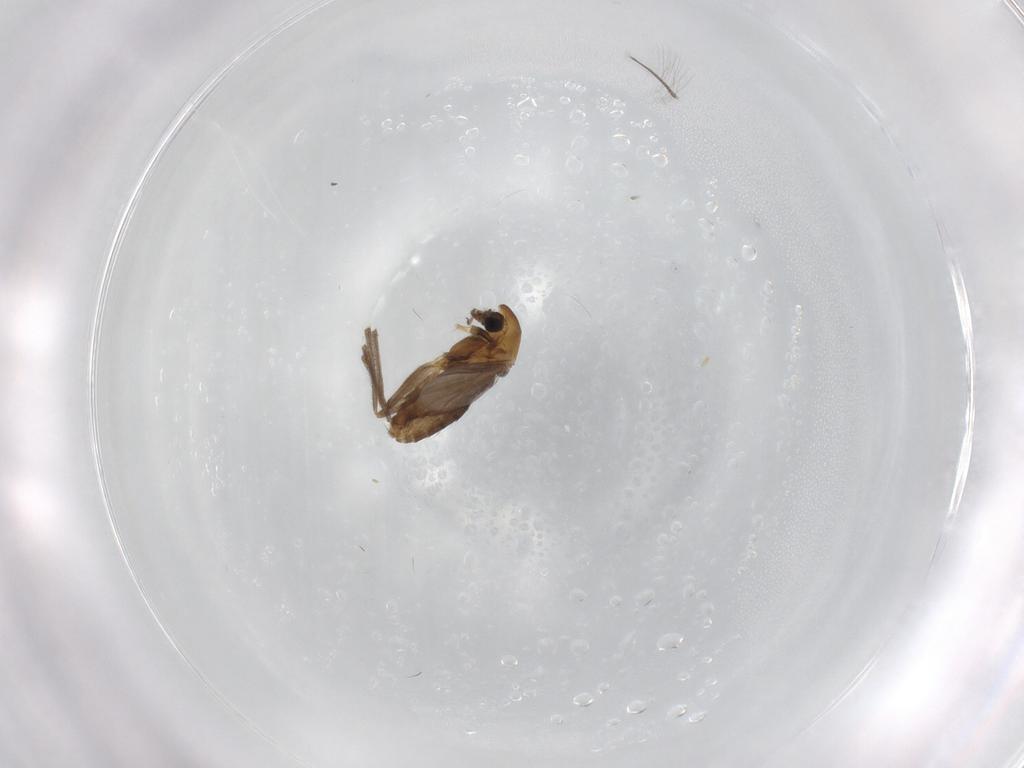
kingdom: Animalia
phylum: Arthropoda
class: Insecta
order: Diptera
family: Chironomidae
